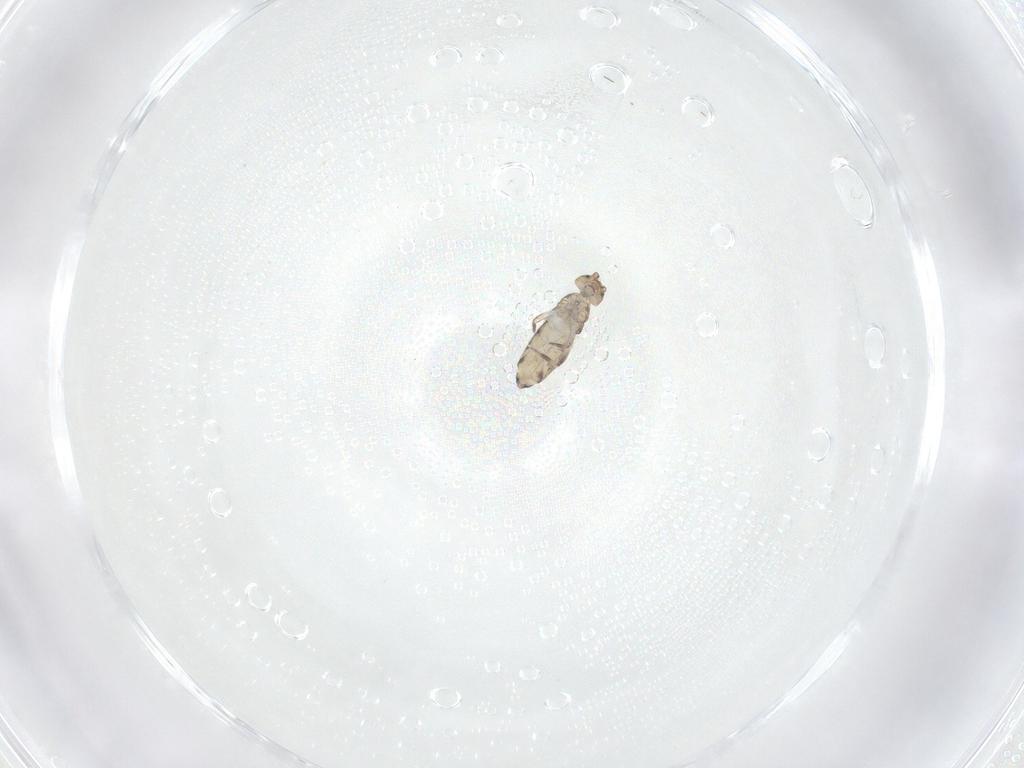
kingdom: Animalia
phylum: Arthropoda
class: Collembola
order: Entomobryomorpha
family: Entomobryidae
